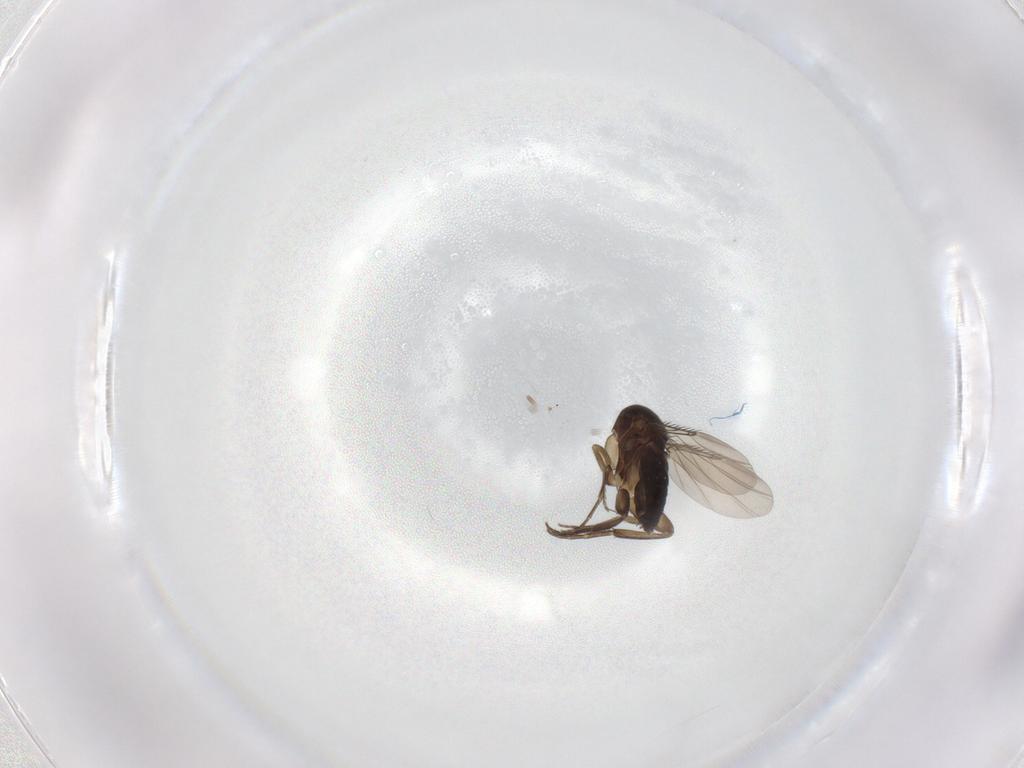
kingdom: Animalia
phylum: Arthropoda
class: Insecta
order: Diptera
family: Phoridae
